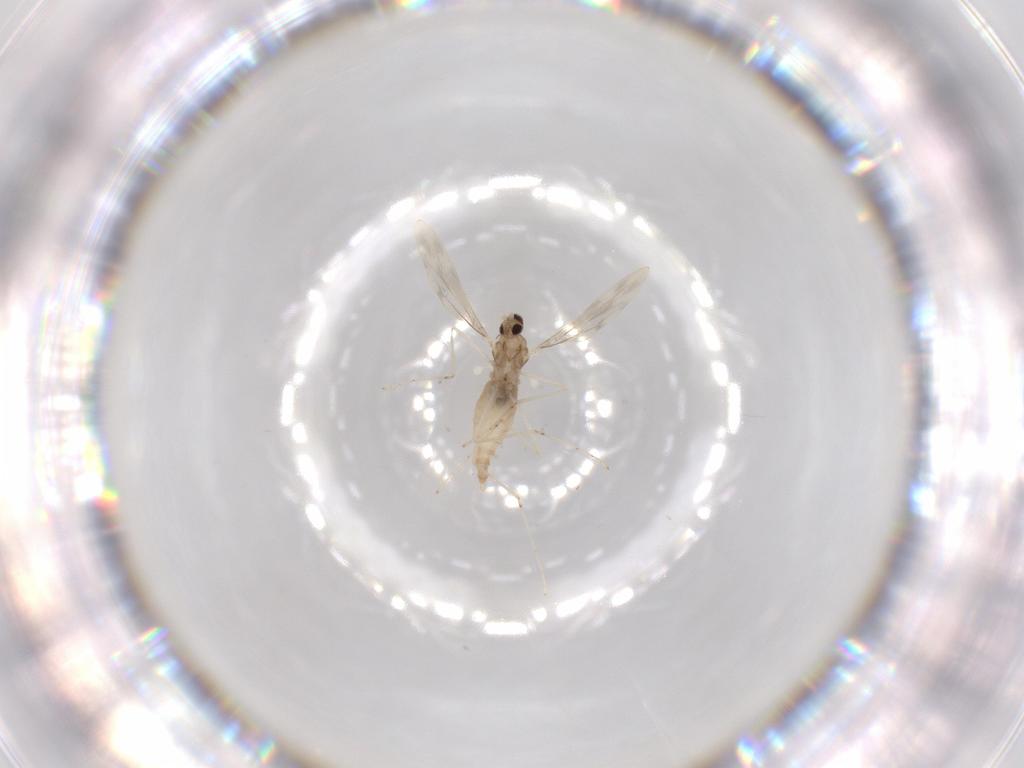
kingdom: Animalia
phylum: Arthropoda
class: Insecta
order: Diptera
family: Cecidomyiidae
